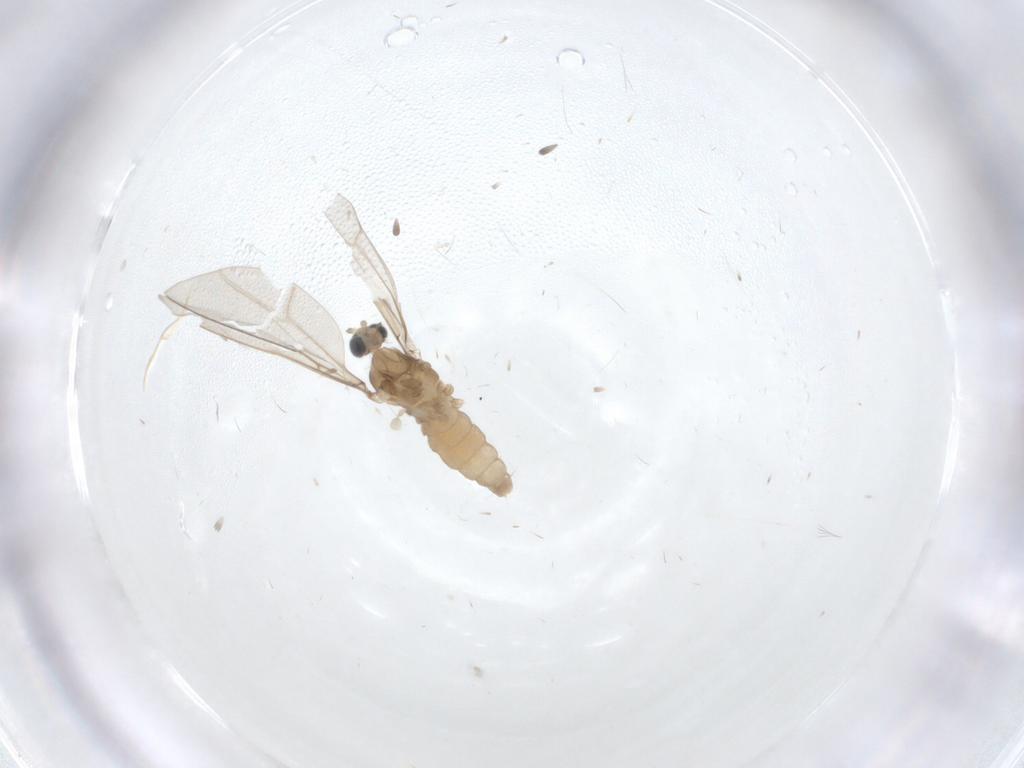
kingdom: Animalia
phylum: Arthropoda
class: Insecta
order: Diptera
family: Cecidomyiidae
